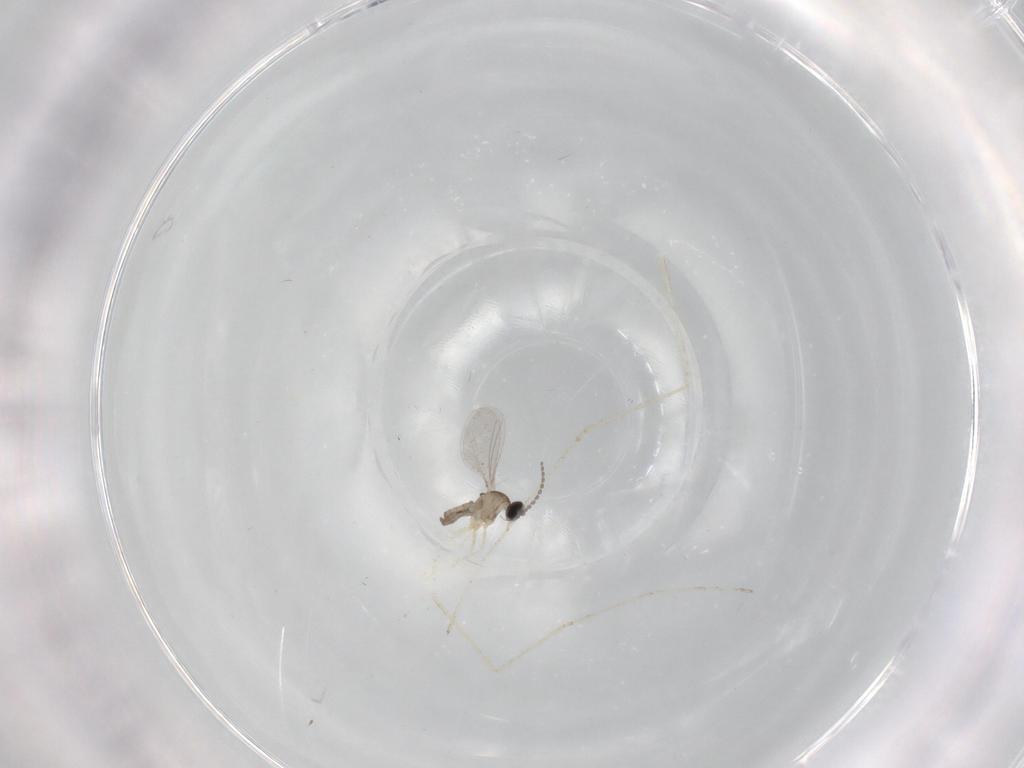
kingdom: Animalia
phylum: Arthropoda
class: Insecta
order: Diptera
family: Cecidomyiidae
